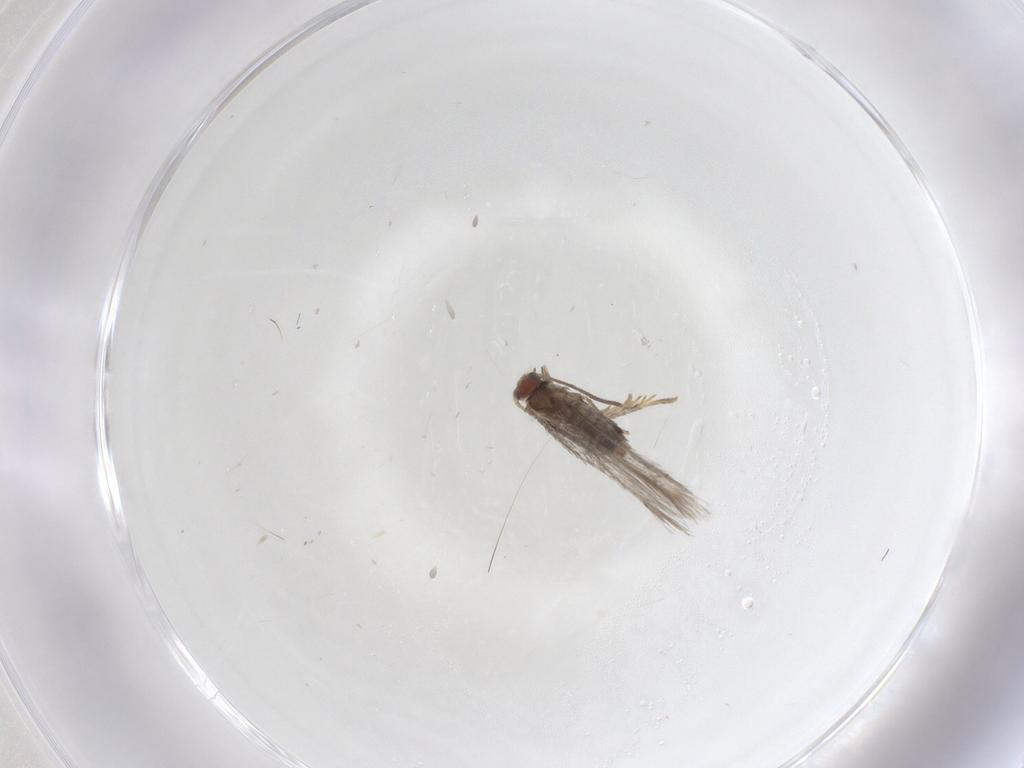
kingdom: Animalia
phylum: Arthropoda
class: Insecta
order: Lepidoptera
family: Nepticulidae
